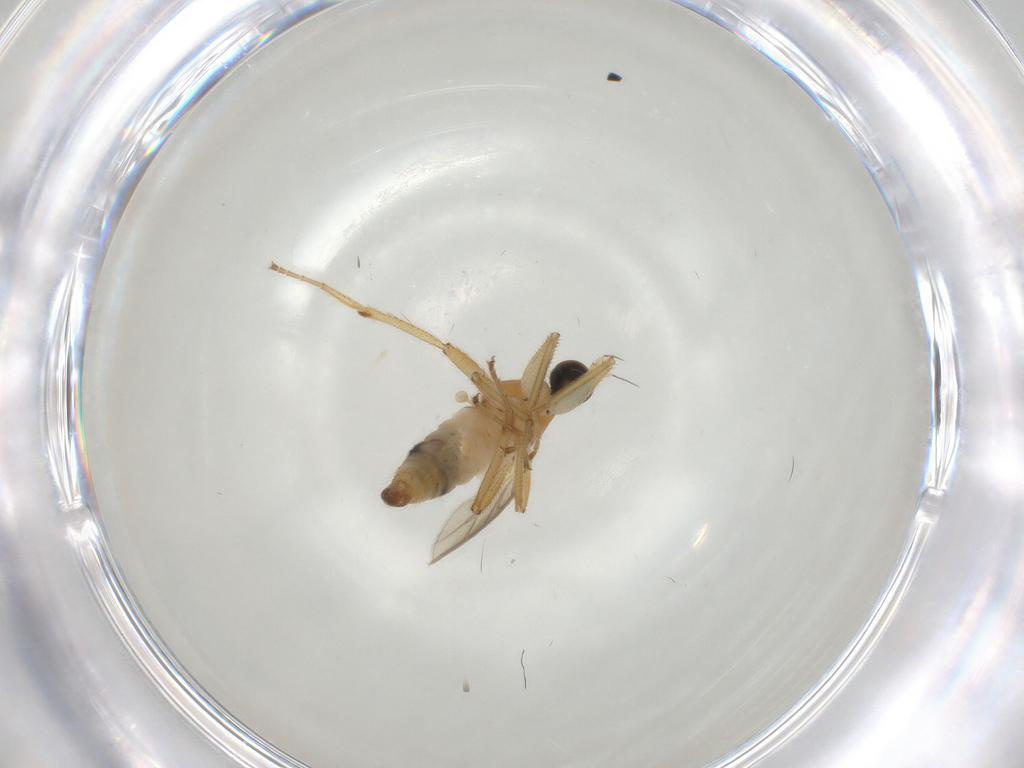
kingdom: Animalia
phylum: Arthropoda
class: Insecta
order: Diptera
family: Hybotidae
